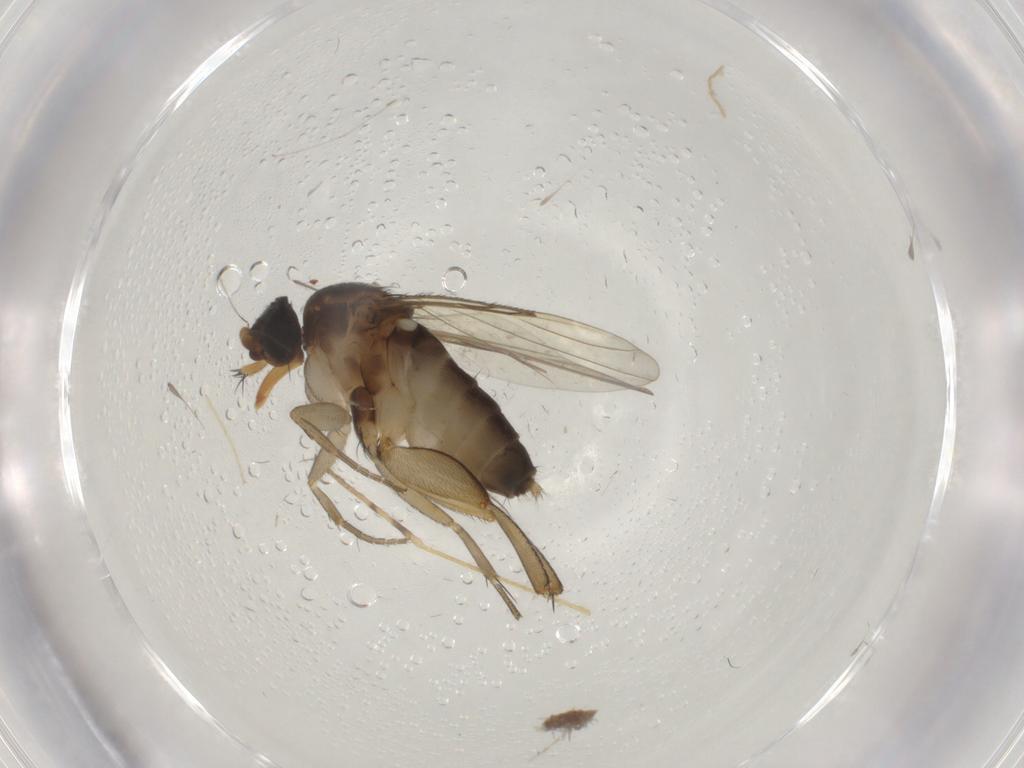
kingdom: Animalia
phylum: Arthropoda
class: Insecta
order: Diptera
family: Phoridae
